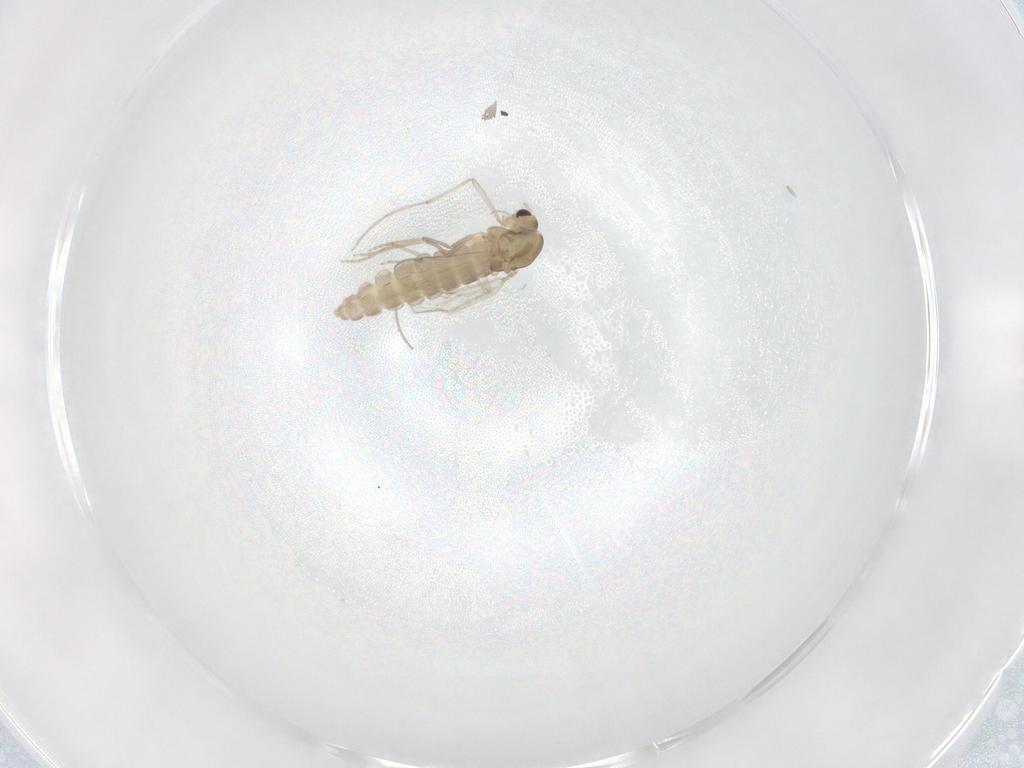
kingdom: Animalia
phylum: Arthropoda
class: Insecta
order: Diptera
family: Chironomidae
